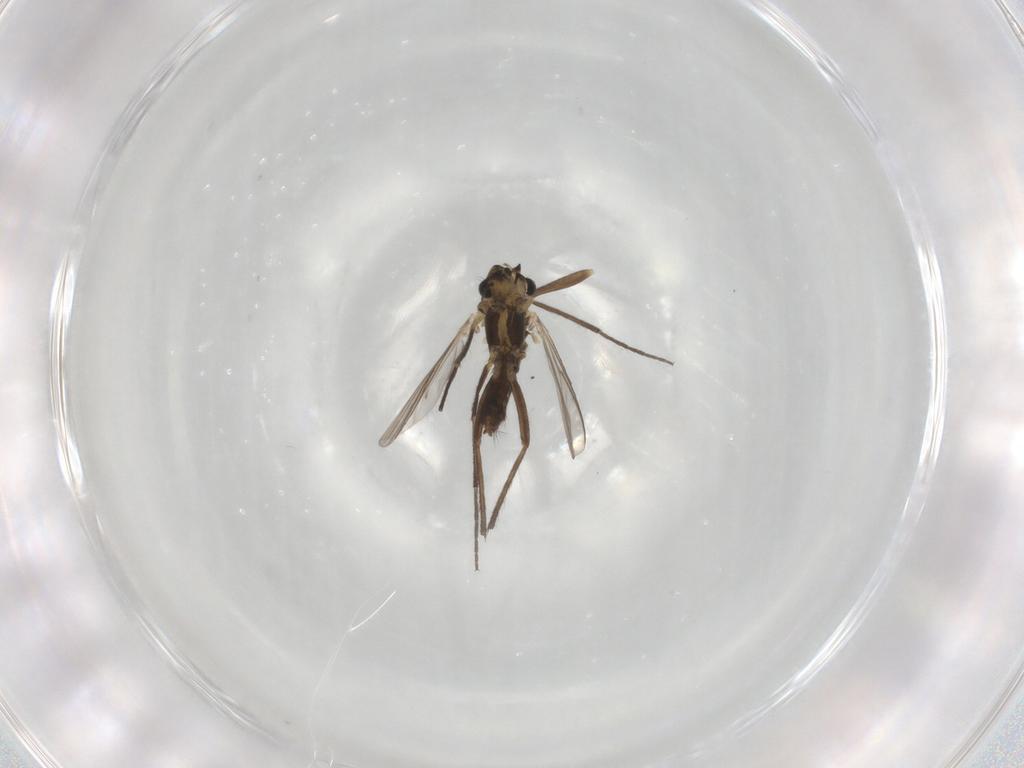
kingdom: Animalia
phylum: Arthropoda
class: Insecta
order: Diptera
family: Chironomidae
